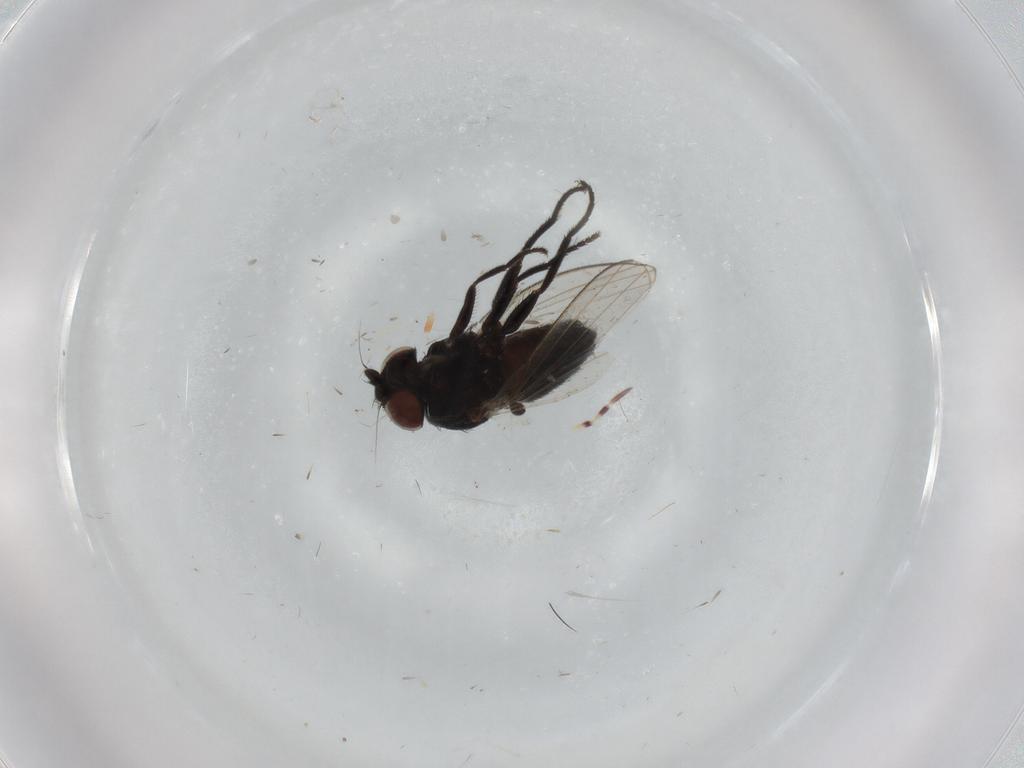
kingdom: Animalia
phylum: Arthropoda
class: Insecta
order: Diptera
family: Milichiidae
